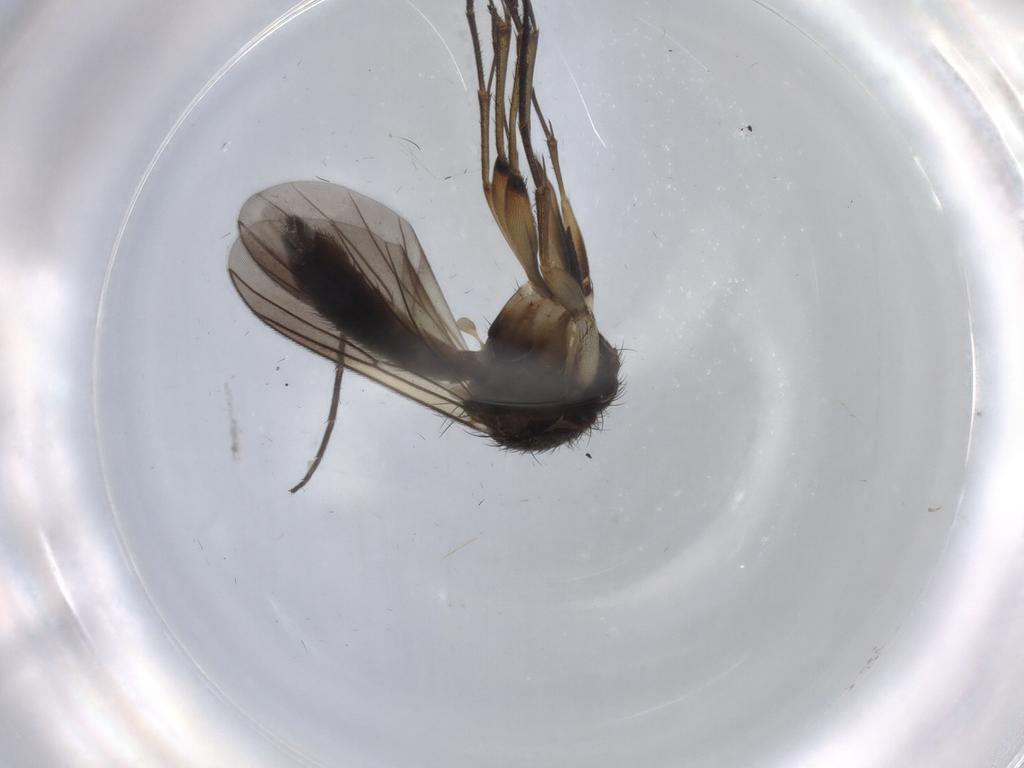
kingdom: Animalia
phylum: Arthropoda
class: Insecta
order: Diptera
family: Mycetophilidae
